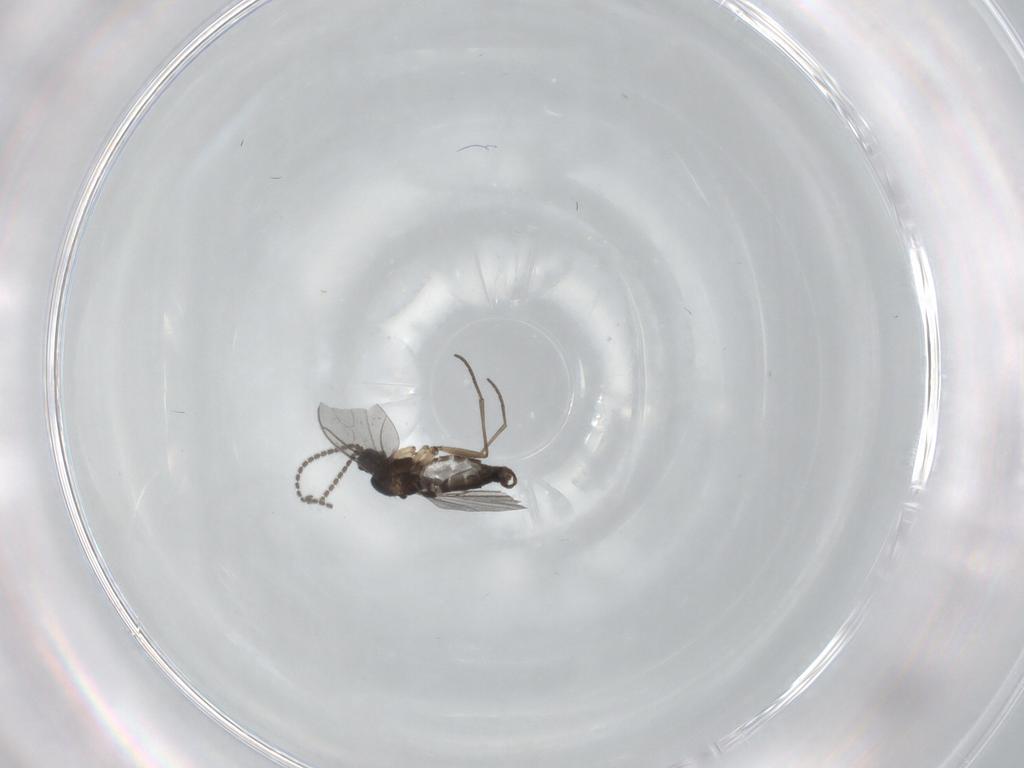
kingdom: Animalia
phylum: Arthropoda
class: Insecta
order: Diptera
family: Sciaridae
